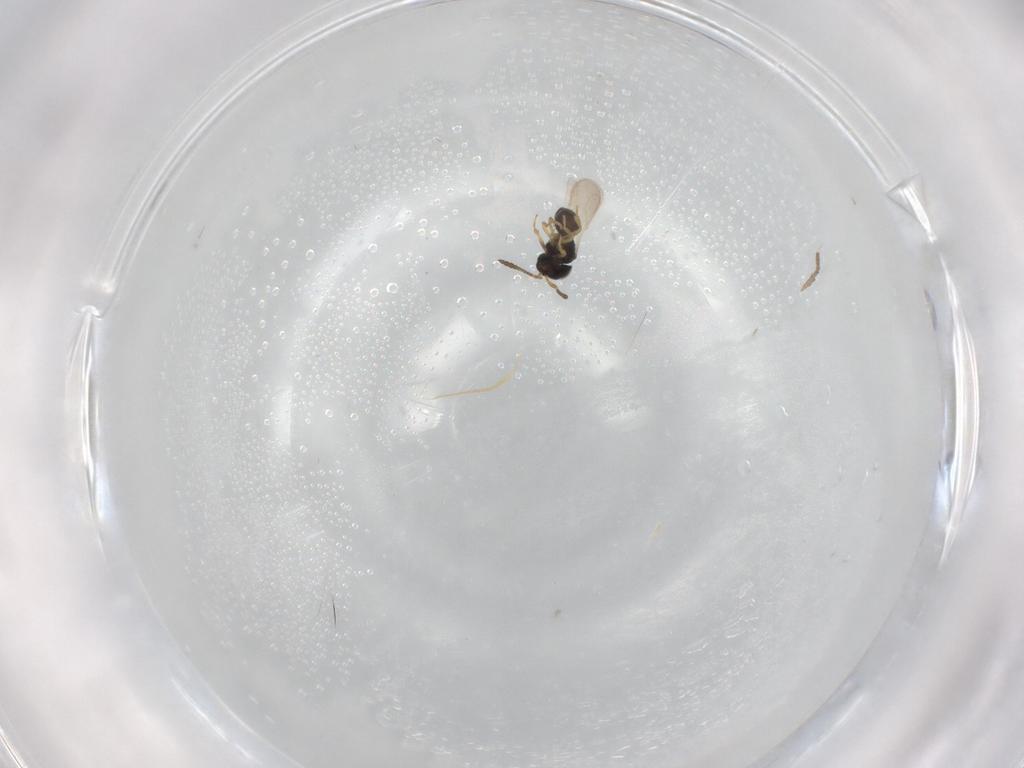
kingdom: Animalia
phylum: Arthropoda
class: Insecta
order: Hymenoptera
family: Scelionidae
